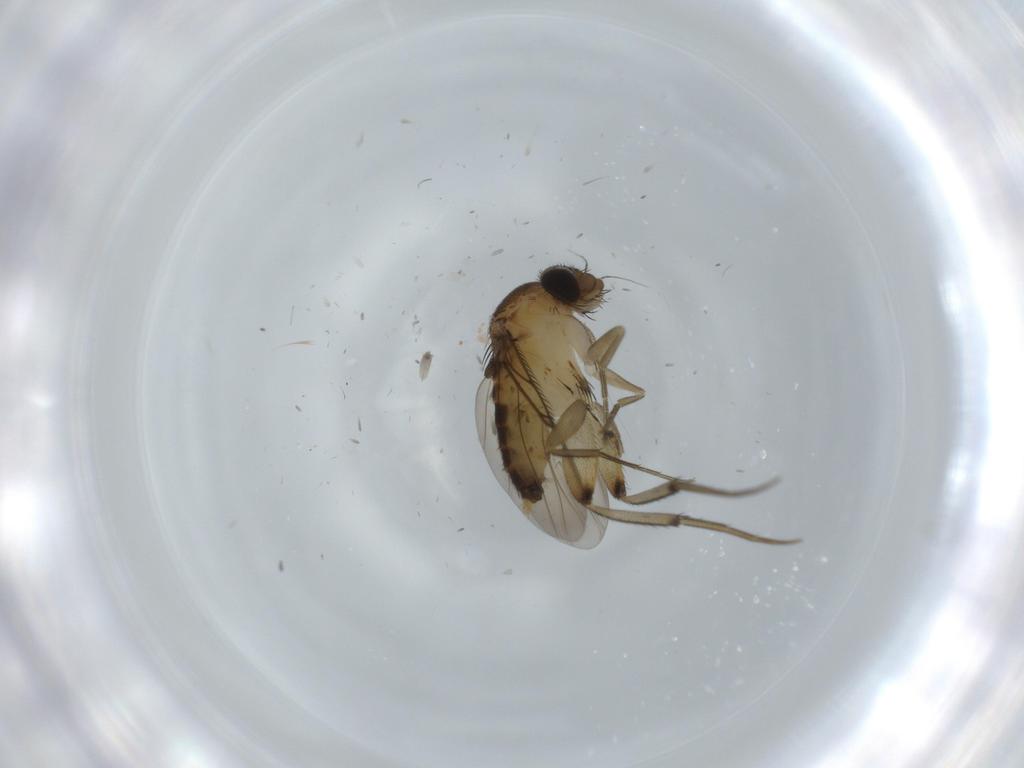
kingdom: Animalia
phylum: Arthropoda
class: Insecta
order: Diptera
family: Phoridae
